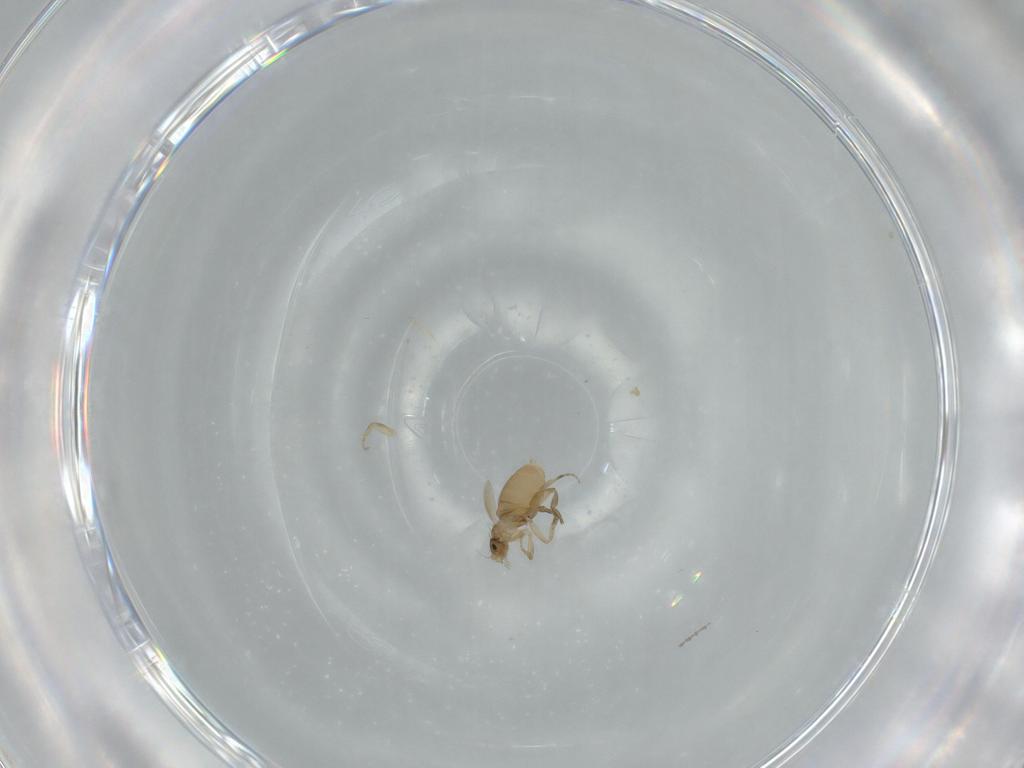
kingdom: Animalia
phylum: Arthropoda
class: Insecta
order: Diptera
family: Phoridae
